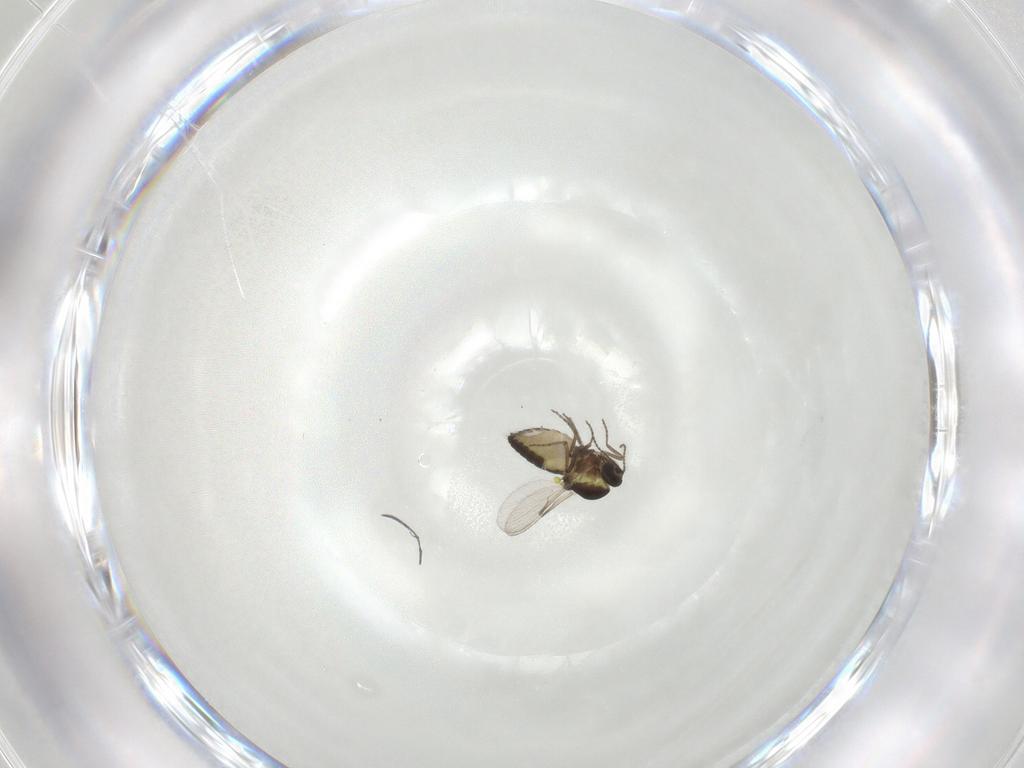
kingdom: Animalia
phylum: Arthropoda
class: Insecta
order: Diptera
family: Ceratopogonidae
